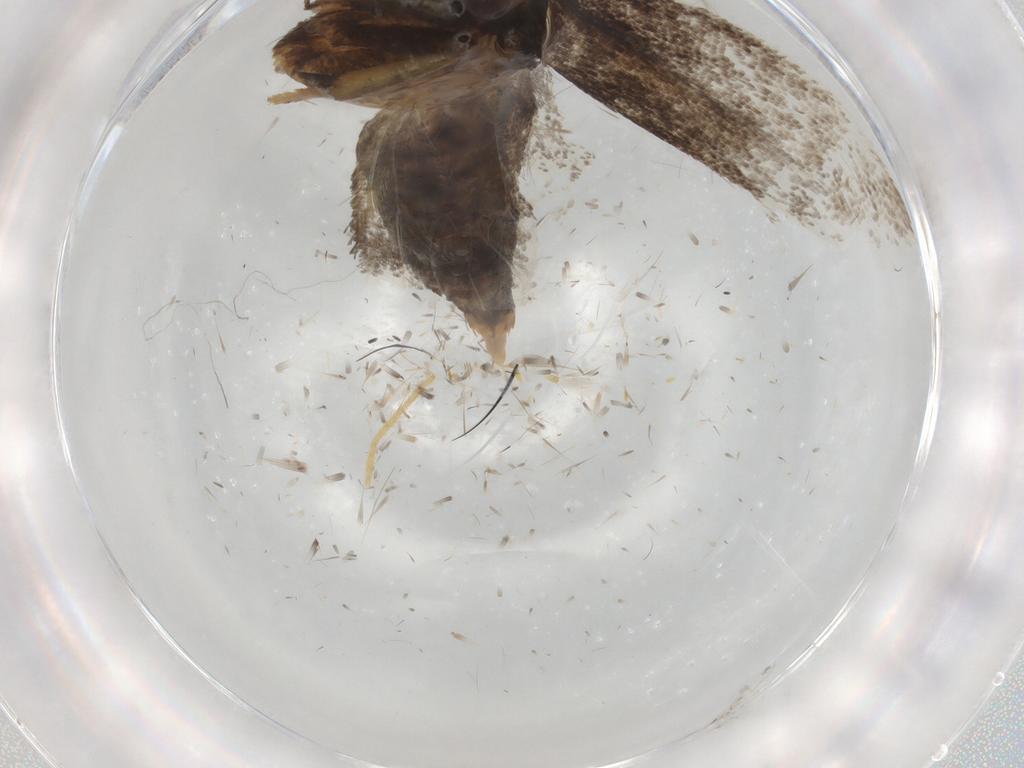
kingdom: Animalia
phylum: Arthropoda
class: Insecta
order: Lepidoptera
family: Lecithoceridae
